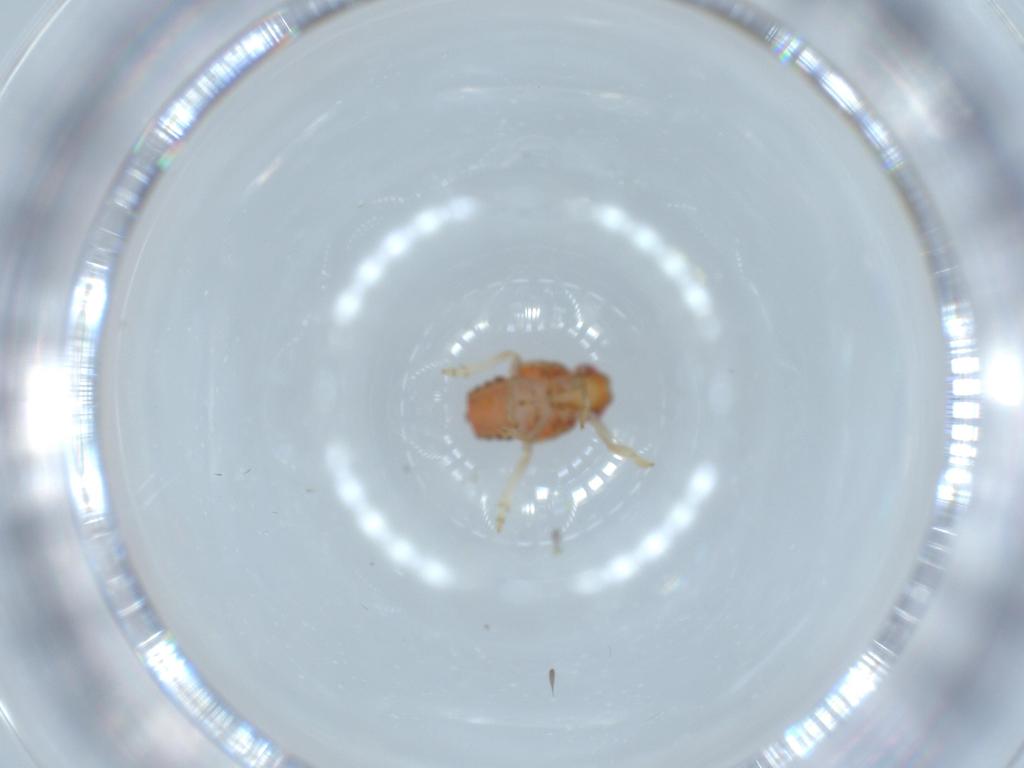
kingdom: Animalia
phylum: Arthropoda
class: Insecta
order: Hemiptera
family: Issidae
